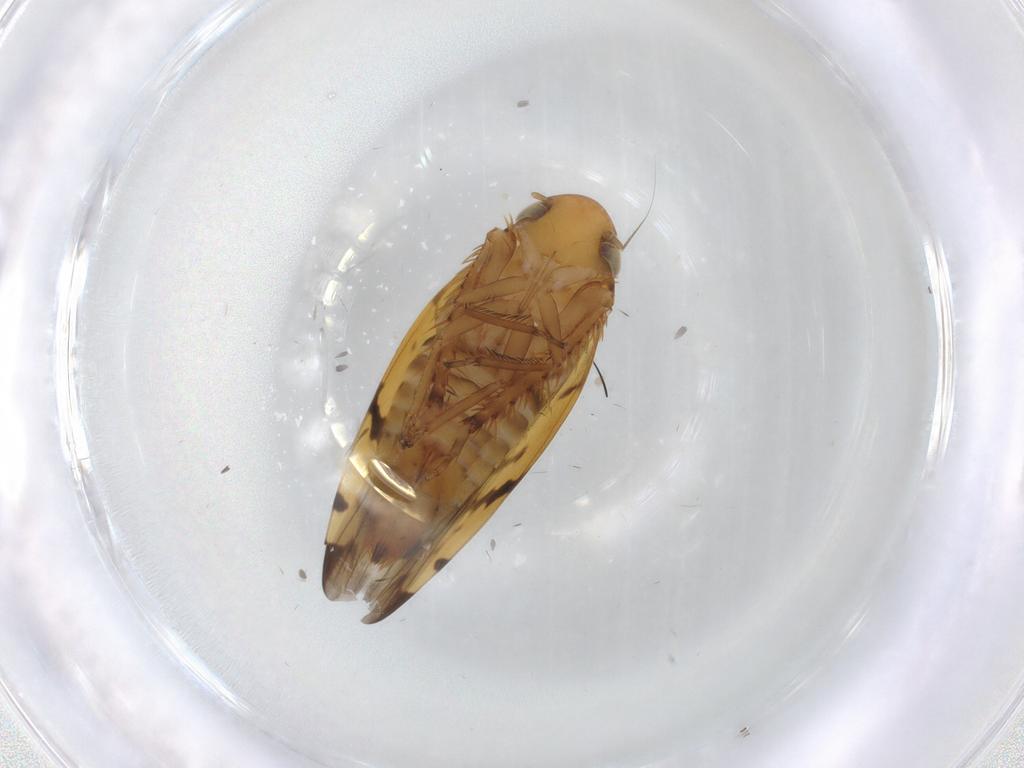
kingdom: Animalia
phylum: Arthropoda
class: Insecta
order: Hemiptera
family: Cicadellidae
